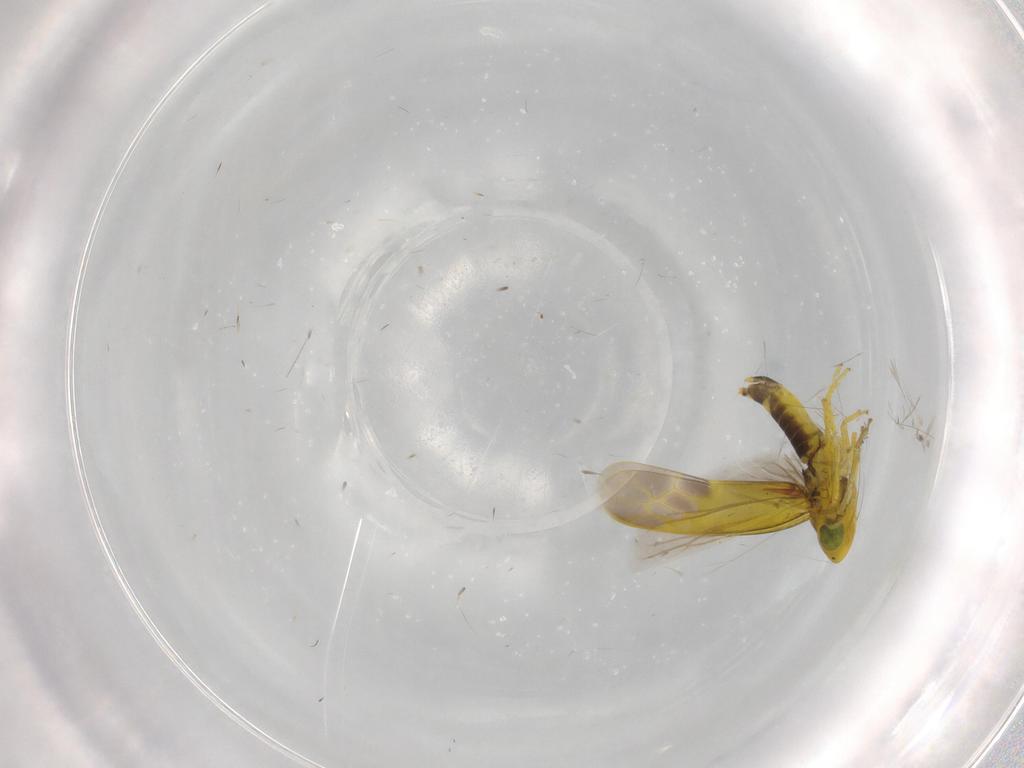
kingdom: Animalia
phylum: Arthropoda
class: Insecta
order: Hemiptera
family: Cicadellidae
